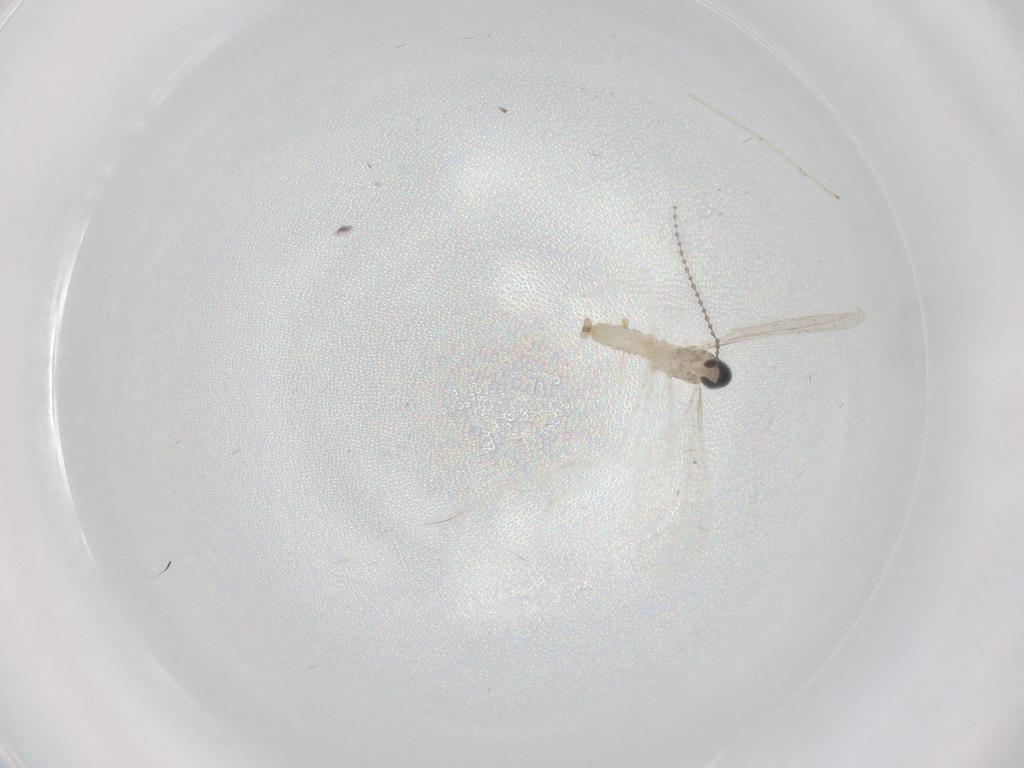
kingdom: Animalia
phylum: Arthropoda
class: Insecta
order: Diptera
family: Cecidomyiidae
